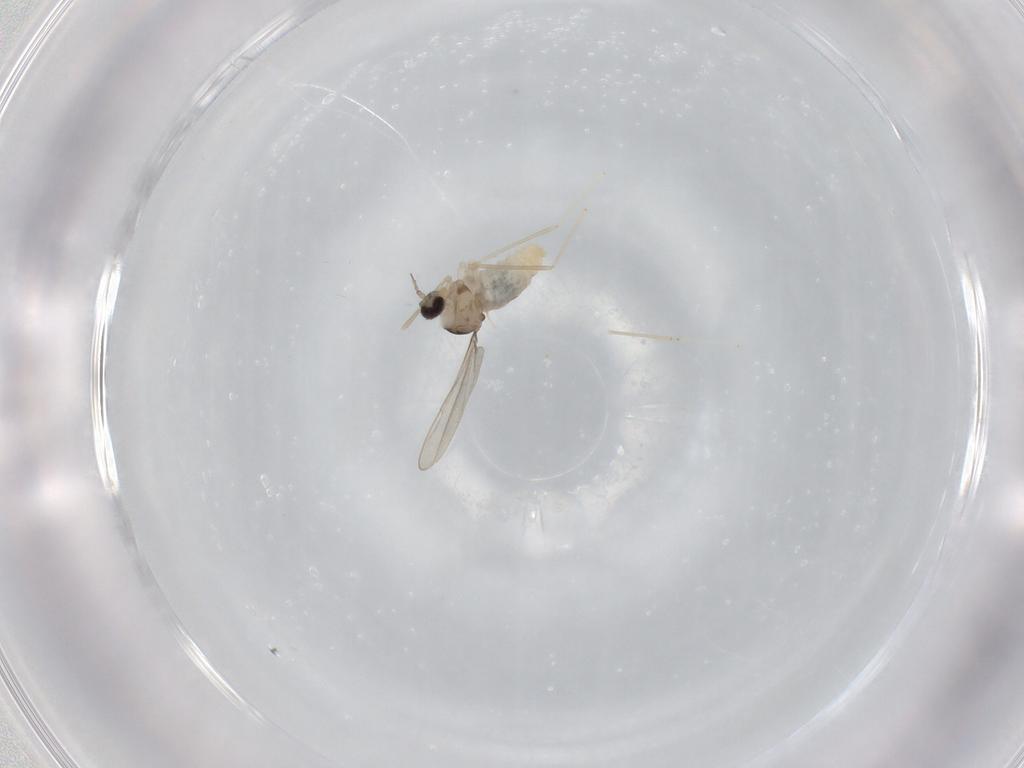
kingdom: Animalia
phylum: Arthropoda
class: Insecta
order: Diptera
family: Cecidomyiidae
